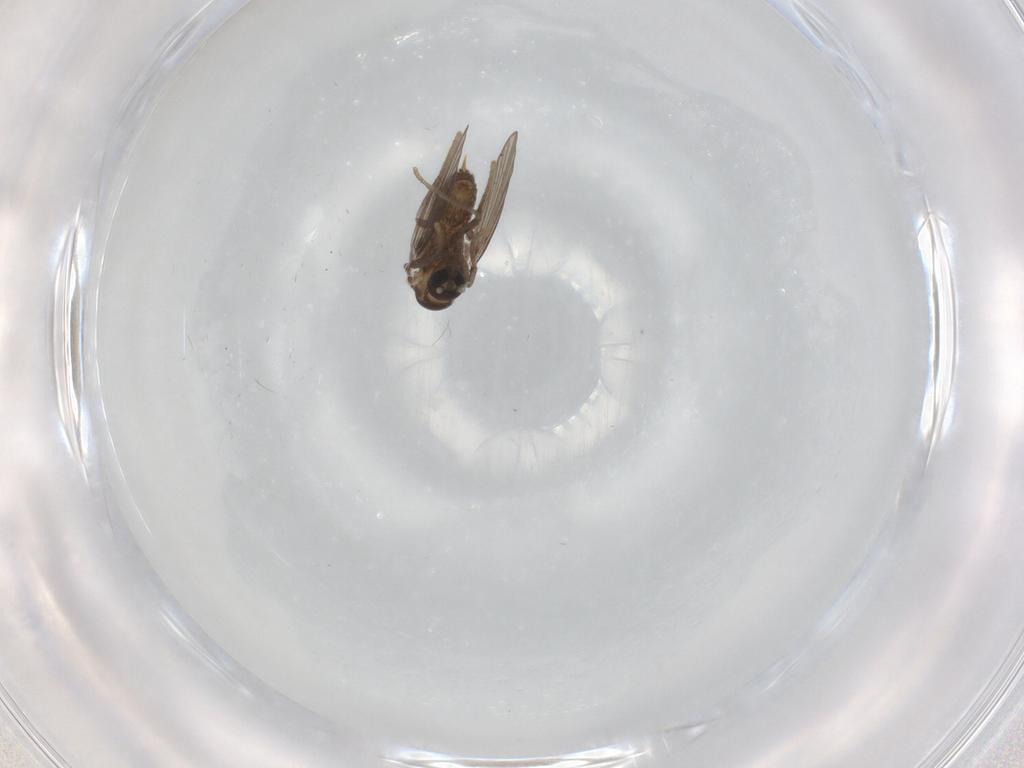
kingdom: Animalia
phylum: Arthropoda
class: Insecta
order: Diptera
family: Psychodidae
